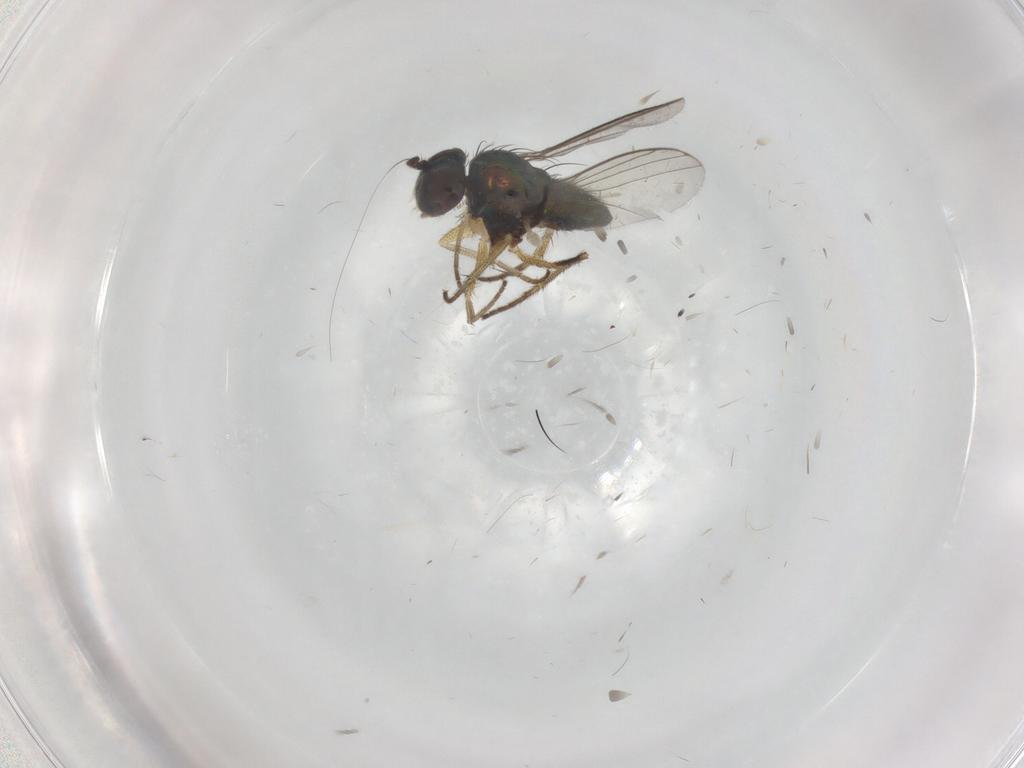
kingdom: Animalia
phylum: Arthropoda
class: Insecta
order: Diptera
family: Dolichopodidae
